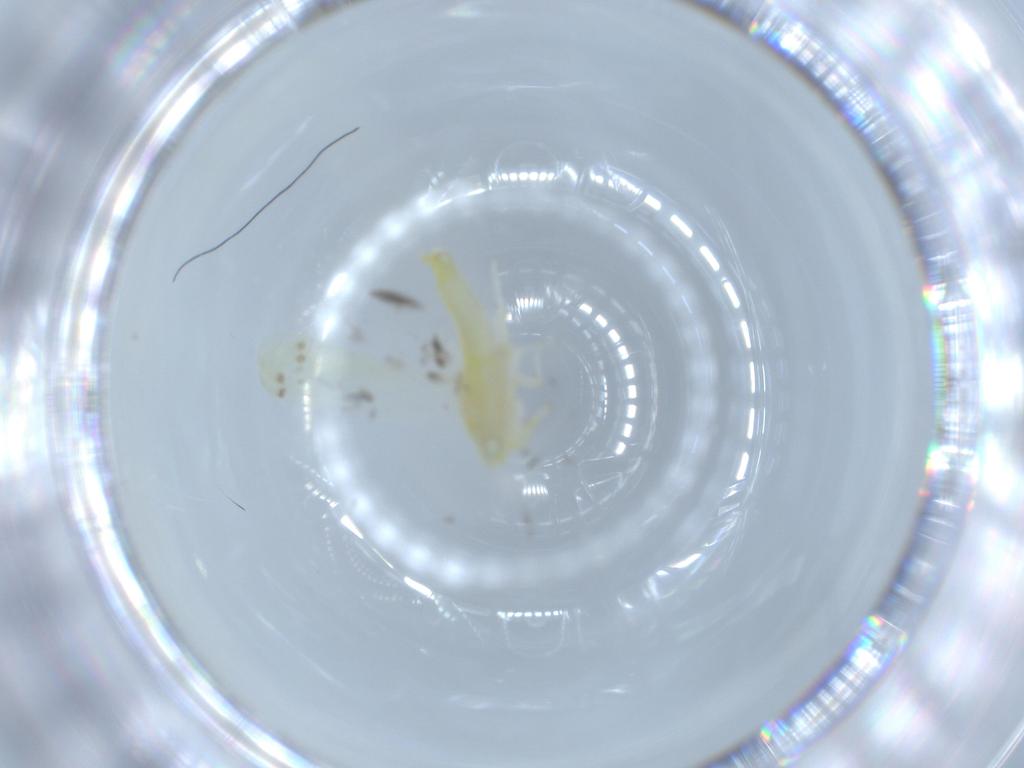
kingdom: Animalia
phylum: Arthropoda
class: Insecta
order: Hemiptera
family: Cicadellidae
